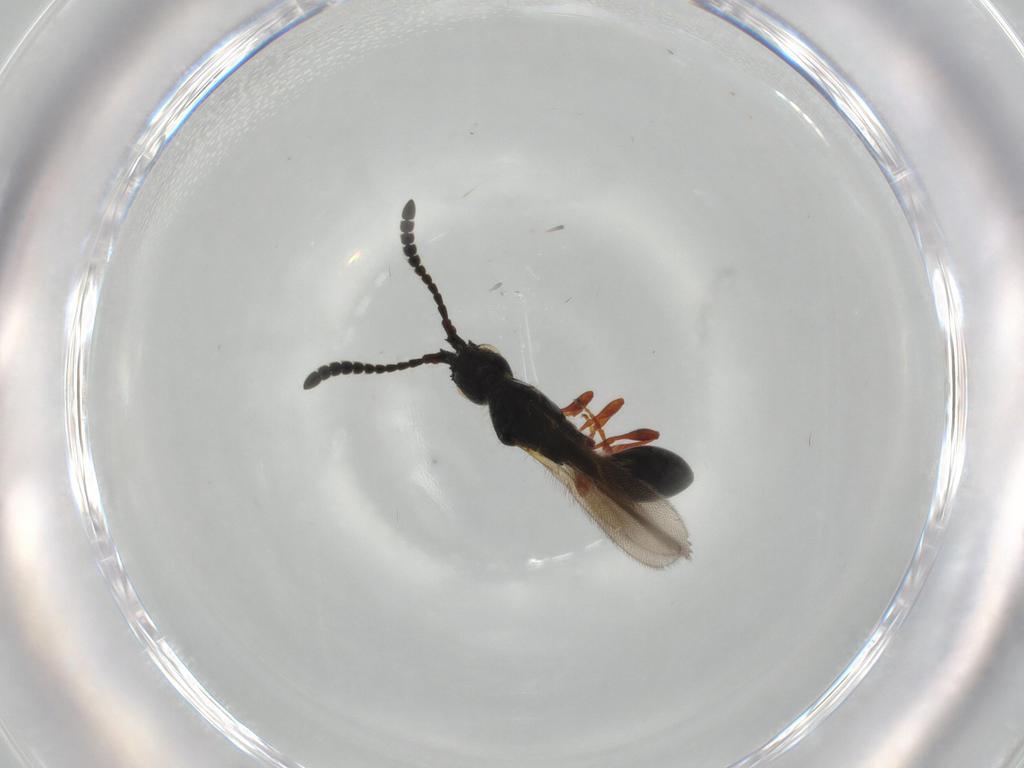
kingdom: Animalia
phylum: Arthropoda
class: Insecta
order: Hymenoptera
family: Diapriidae
